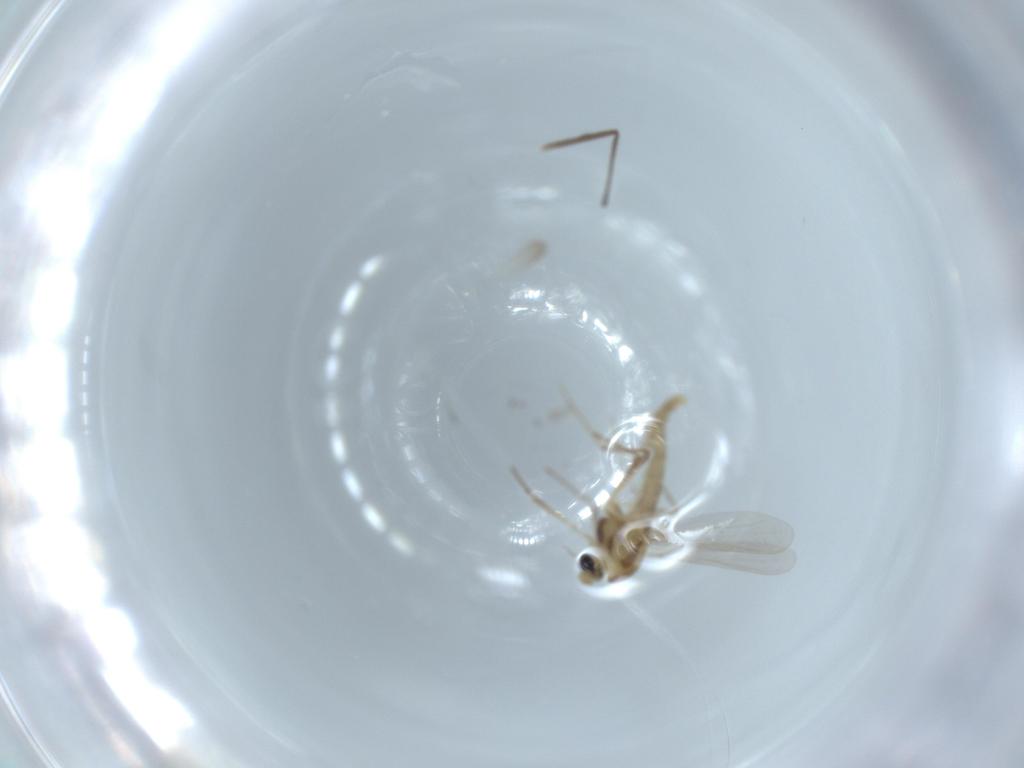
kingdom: Animalia
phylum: Arthropoda
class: Insecta
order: Diptera
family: Chironomidae
